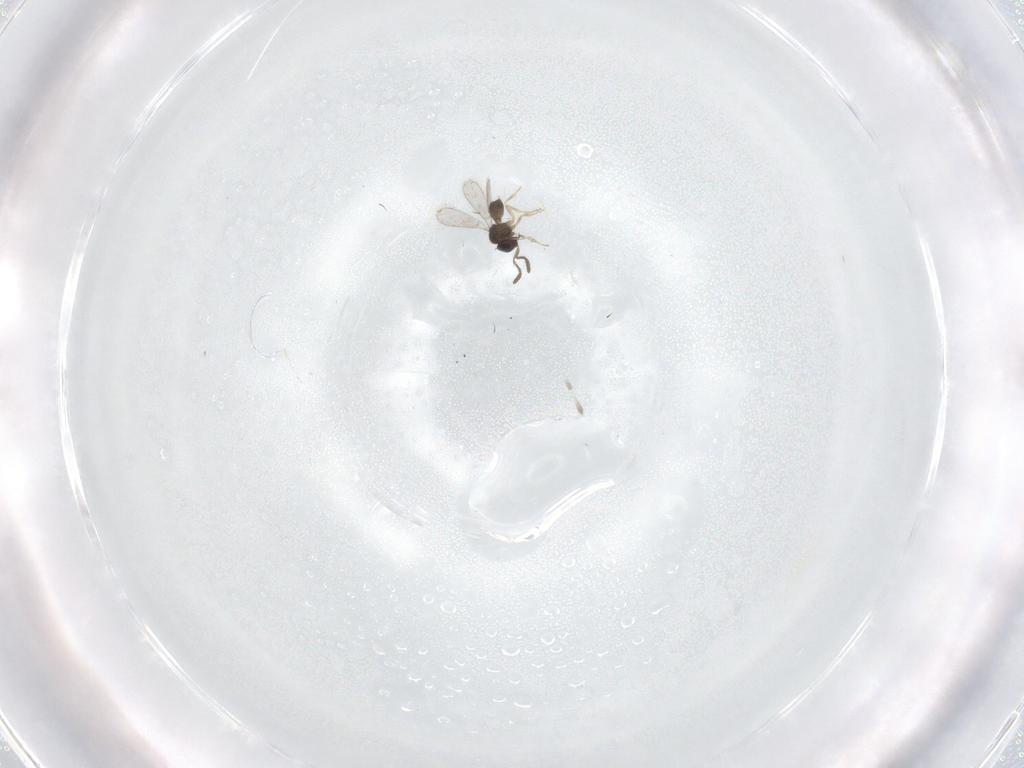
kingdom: Animalia
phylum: Arthropoda
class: Insecta
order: Hymenoptera
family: Scelionidae
